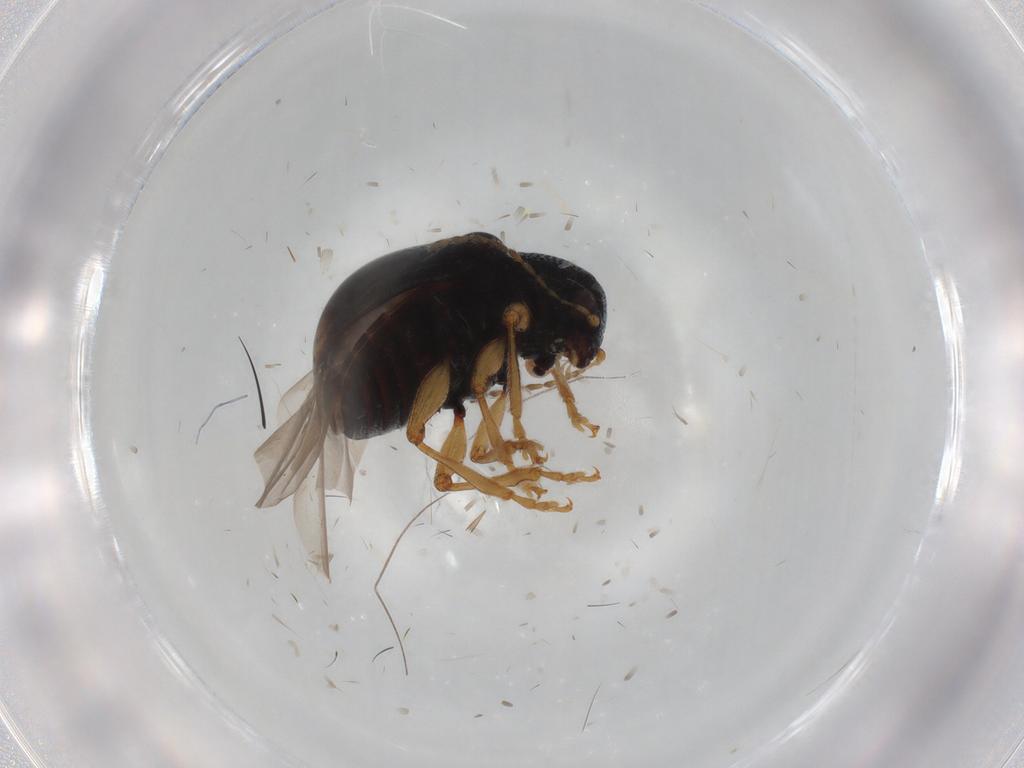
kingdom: Animalia
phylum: Arthropoda
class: Insecta
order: Coleoptera
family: Chrysomelidae
